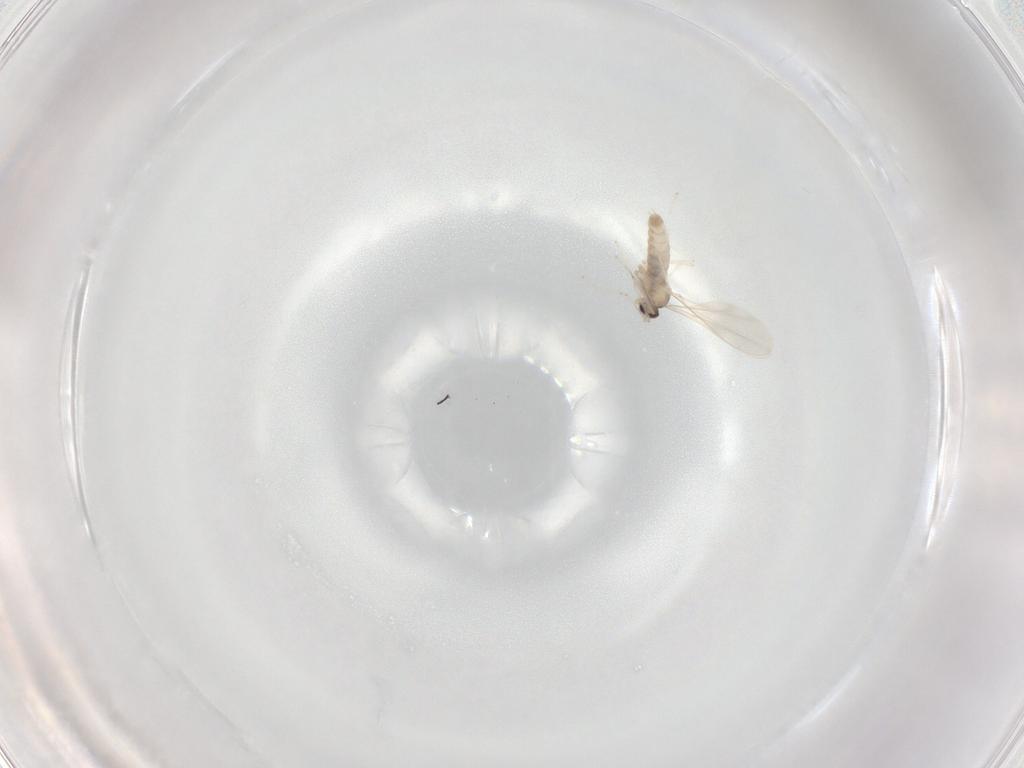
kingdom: Animalia
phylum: Arthropoda
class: Insecta
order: Diptera
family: Cecidomyiidae
